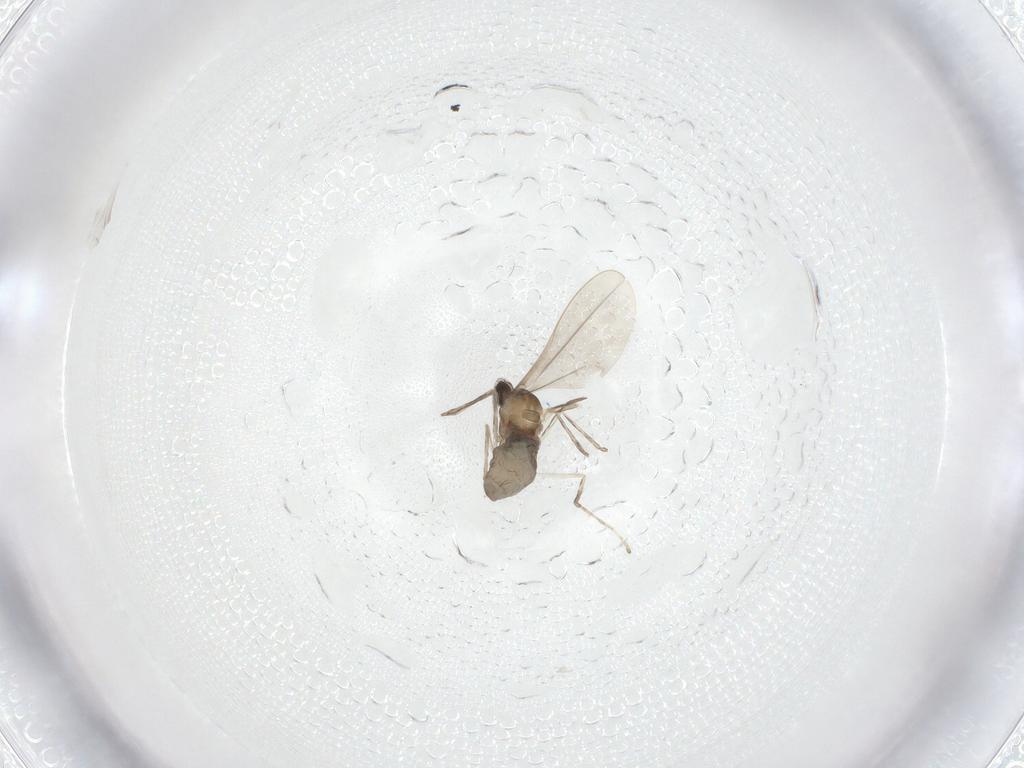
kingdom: Animalia
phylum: Arthropoda
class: Insecta
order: Diptera
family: Cecidomyiidae
